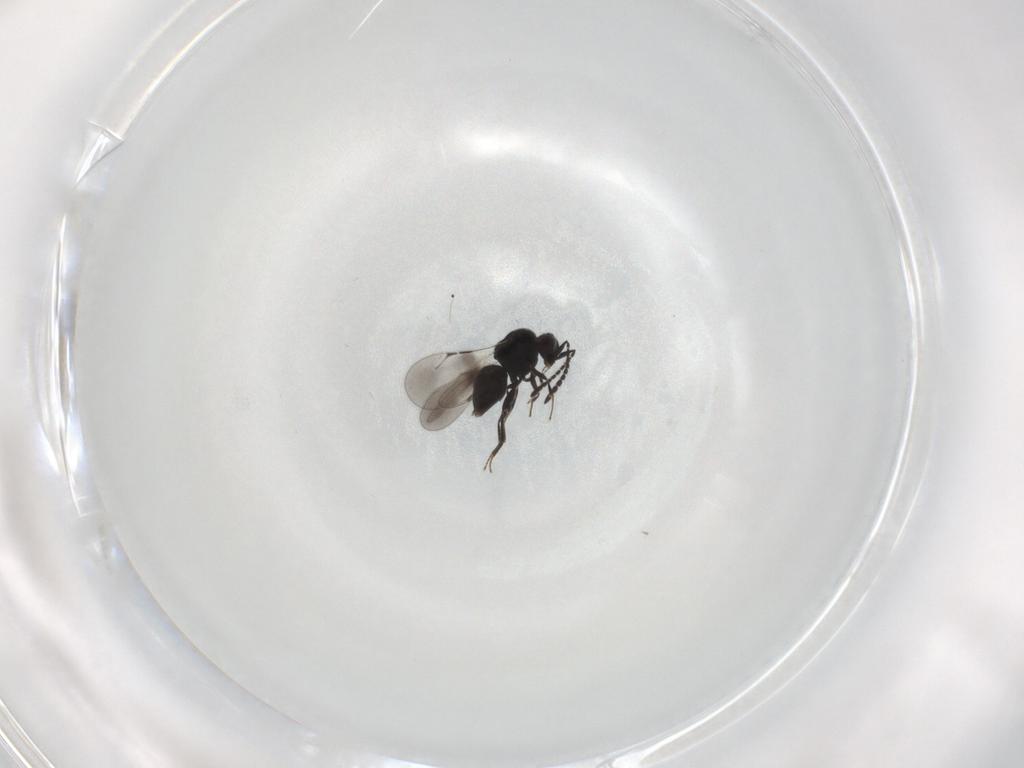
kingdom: Animalia
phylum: Arthropoda
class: Insecta
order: Hymenoptera
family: Ceraphronidae
